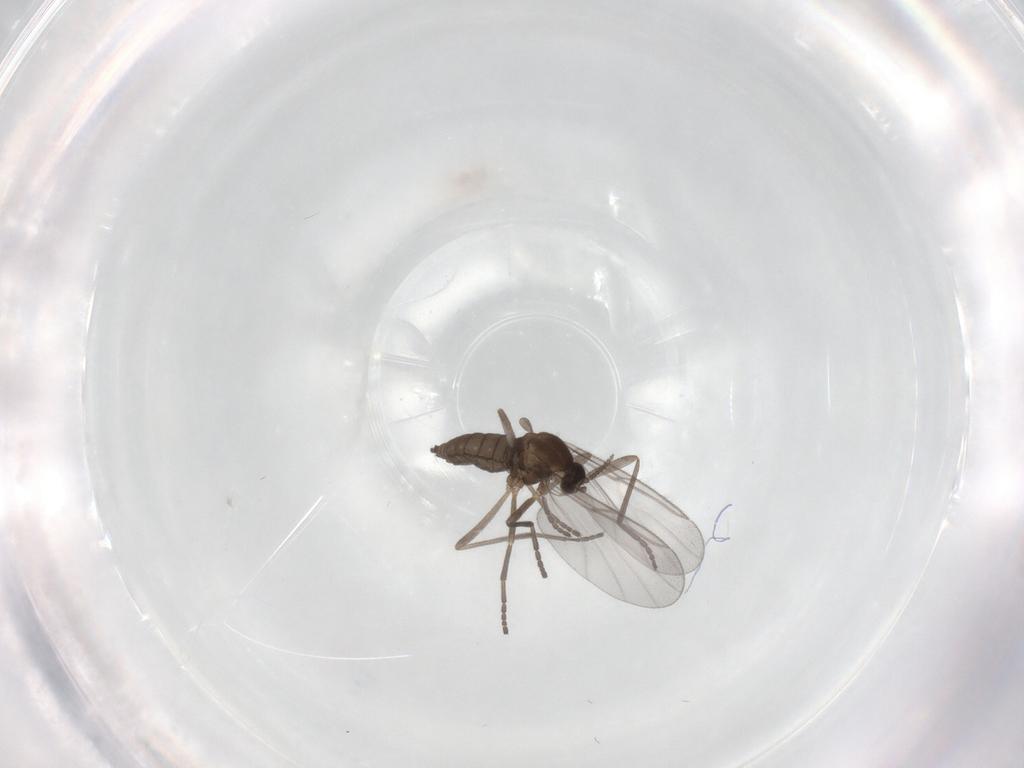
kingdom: Animalia
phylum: Arthropoda
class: Insecta
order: Diptera
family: Cecidomyiidae
